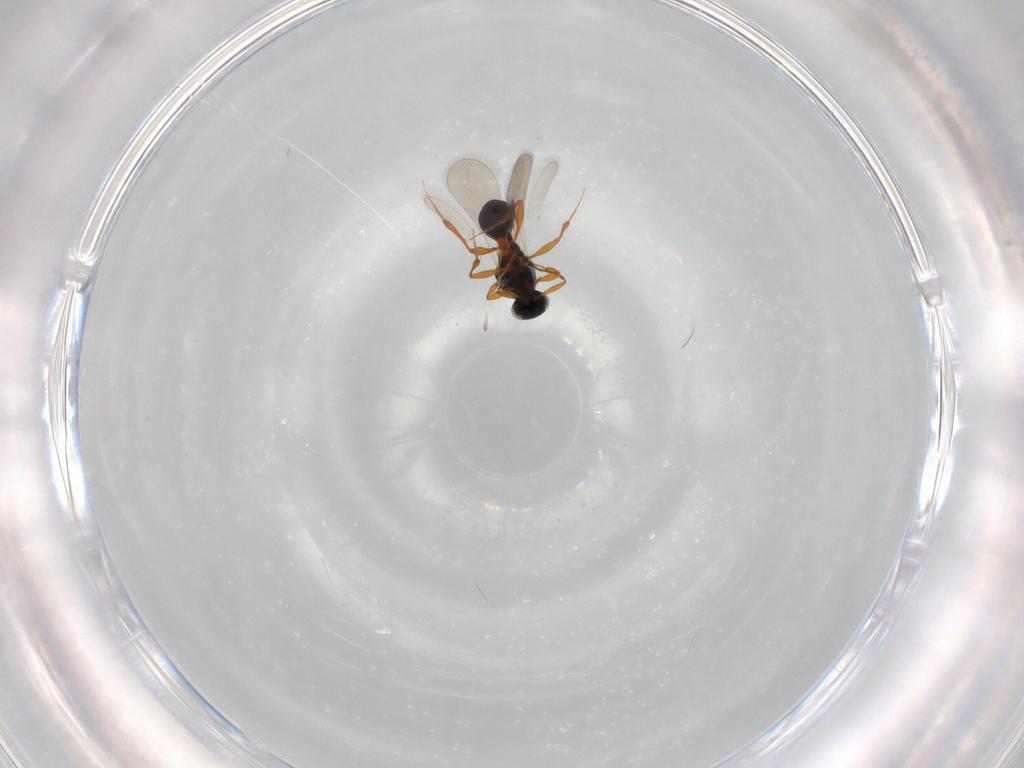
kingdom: Animalia
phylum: Arthropoda
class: Insecta
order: Hymenoptera
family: Platygastridae
